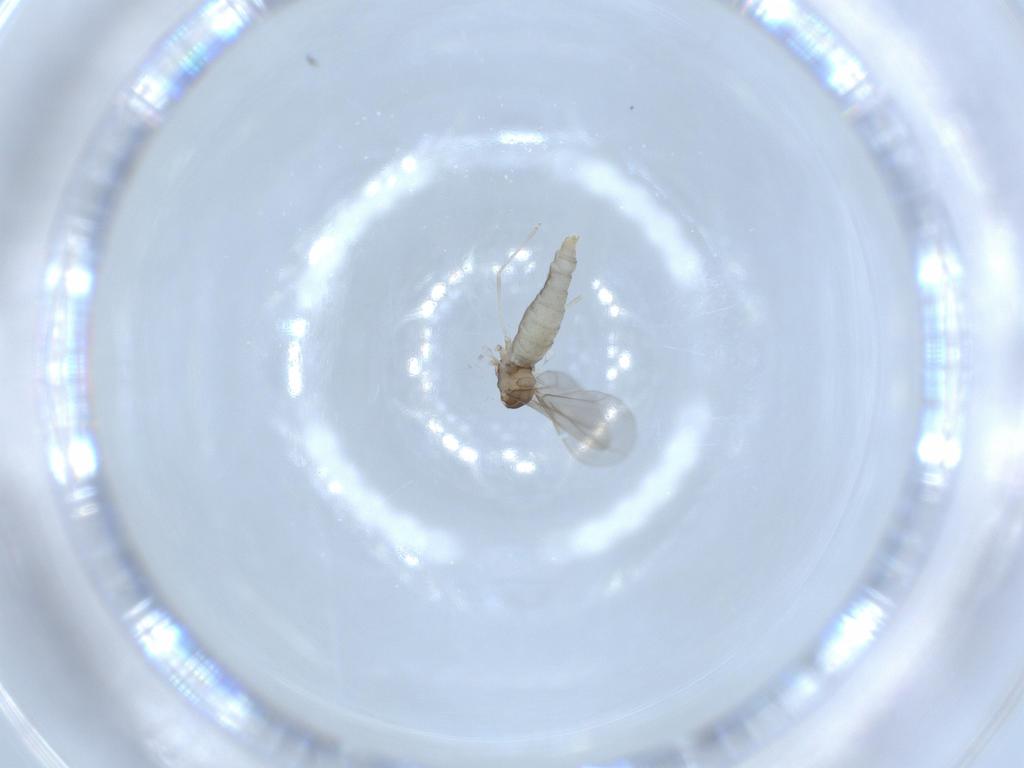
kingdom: Animalia
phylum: Arthropoda
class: Insecta
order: Diptera
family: Cecidomyiidae
